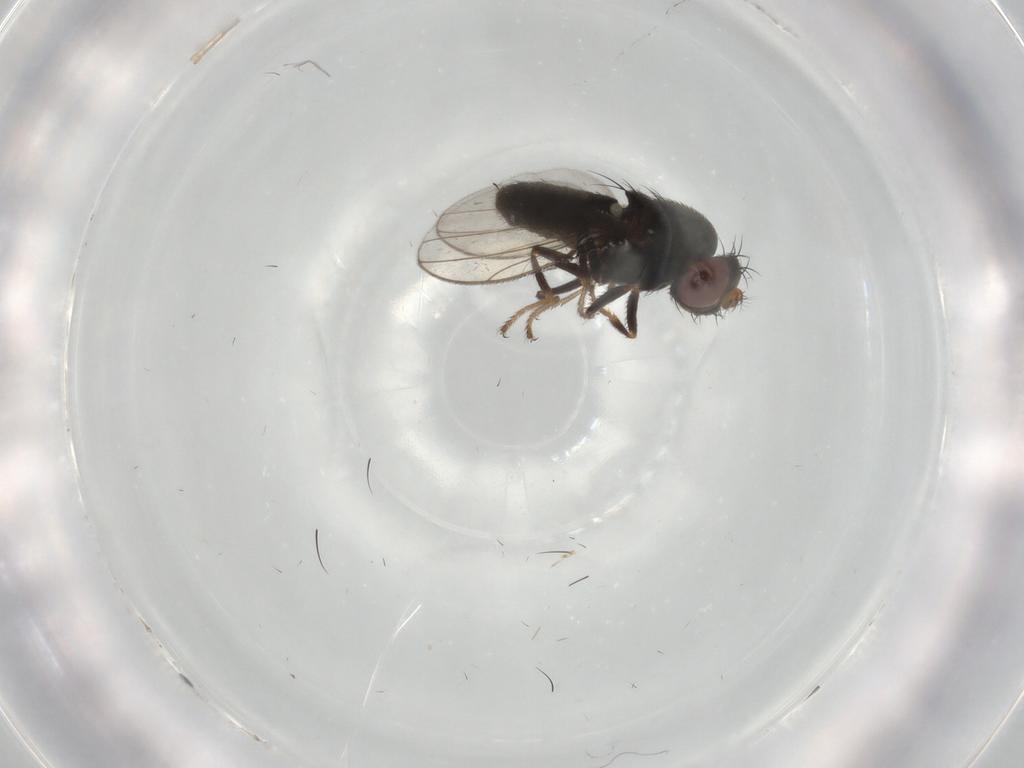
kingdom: Animalia
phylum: Arthropoda
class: Insecta
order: Diptera
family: Ephydridae
